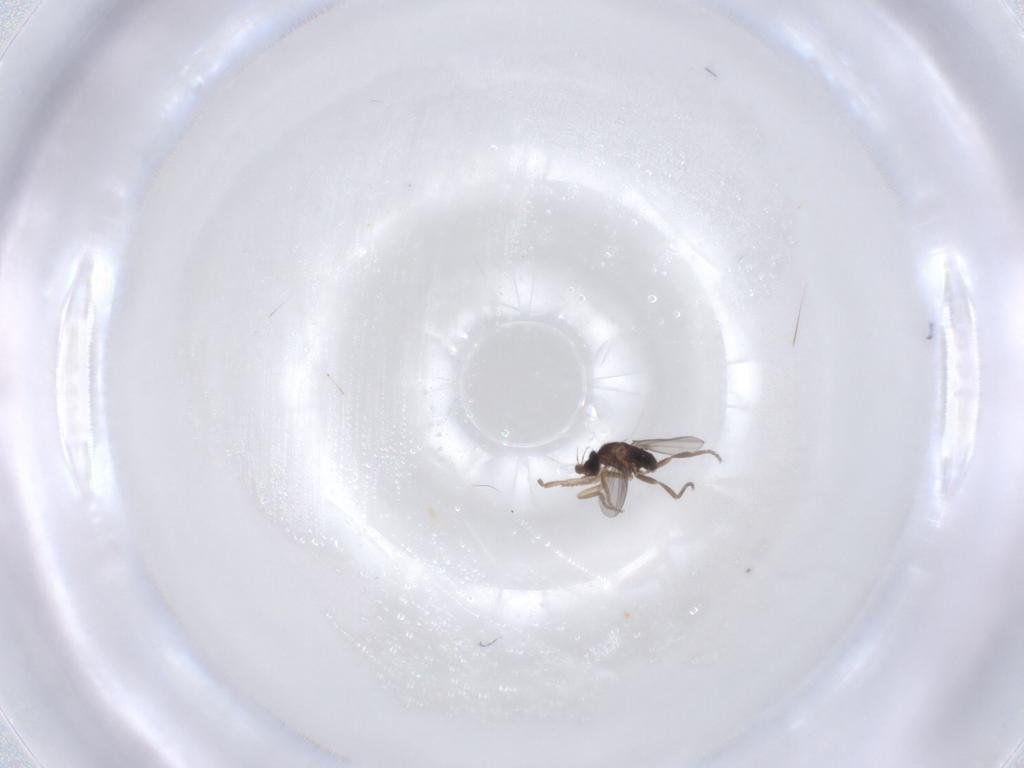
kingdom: Animalia
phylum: Arthropoda
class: Insecta
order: Diptera
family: Phoridae
